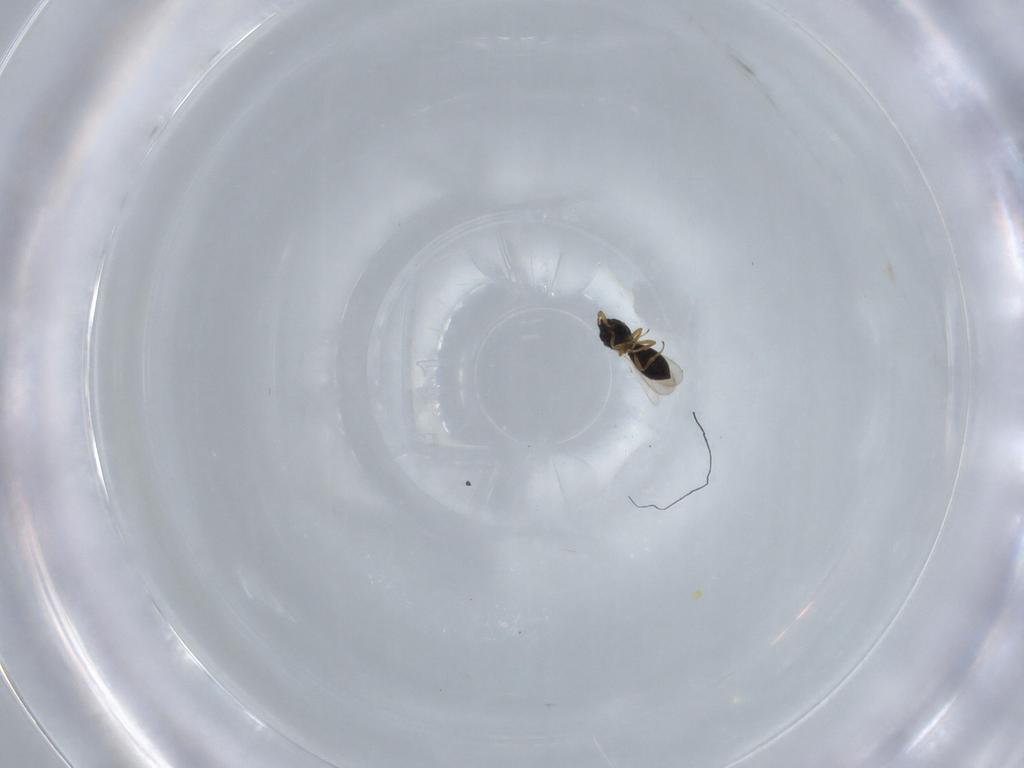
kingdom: Animalia
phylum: Arthropoda
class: Insecta
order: Hymenoptera
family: Scelionidae
